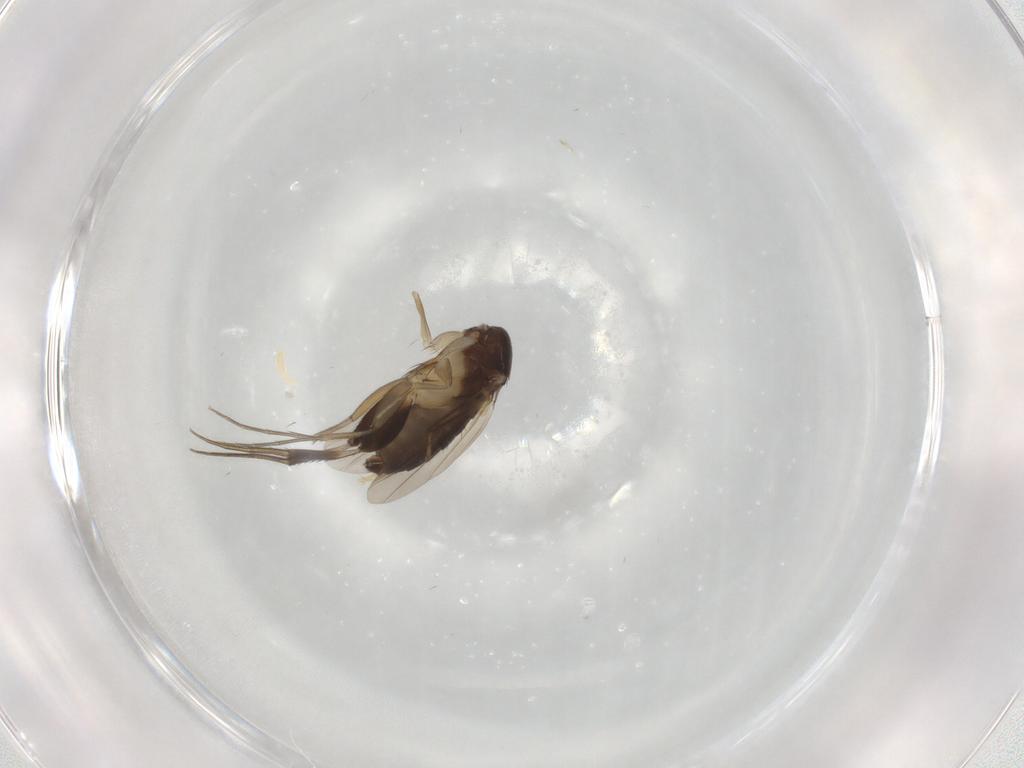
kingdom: Animalia
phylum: Arthropoda
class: Insecta
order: Diptera
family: Phoridae
